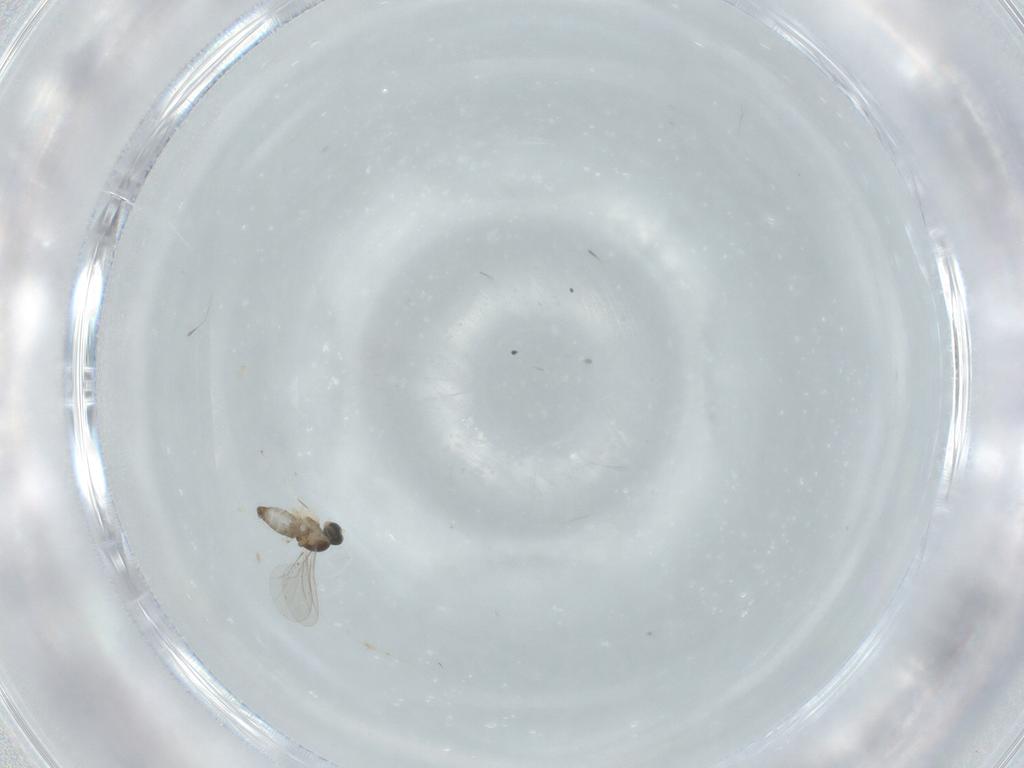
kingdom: Animalia
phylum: Arthropoda
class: Insecta
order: Diptera
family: Cecidomyiidae
